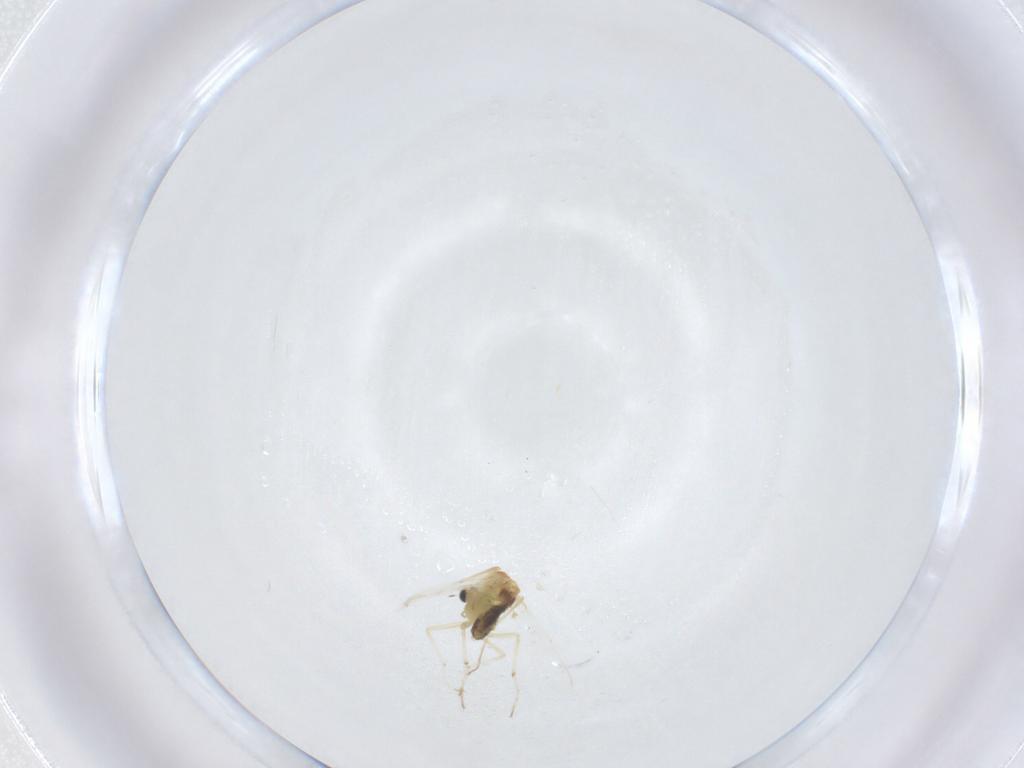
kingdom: Animalia
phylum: Arthropoda
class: Insecta
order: Diptera
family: Chironomidae
